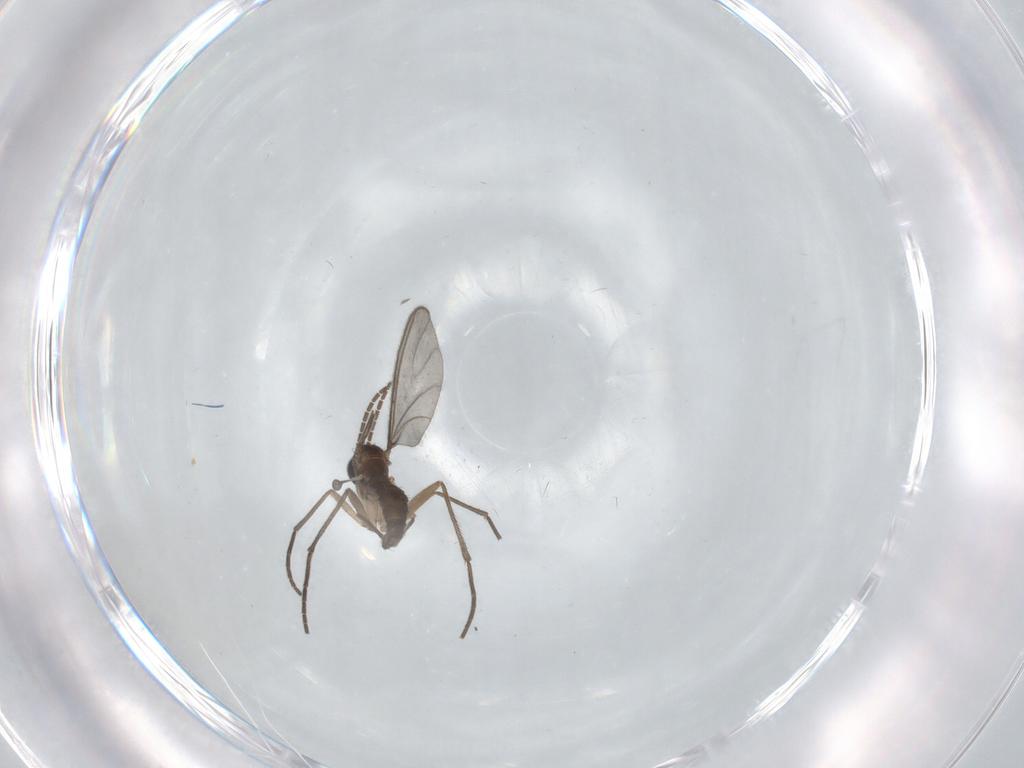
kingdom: Animalia
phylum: Arthropoda
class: Insecta
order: Diptera
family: Sciaridae
